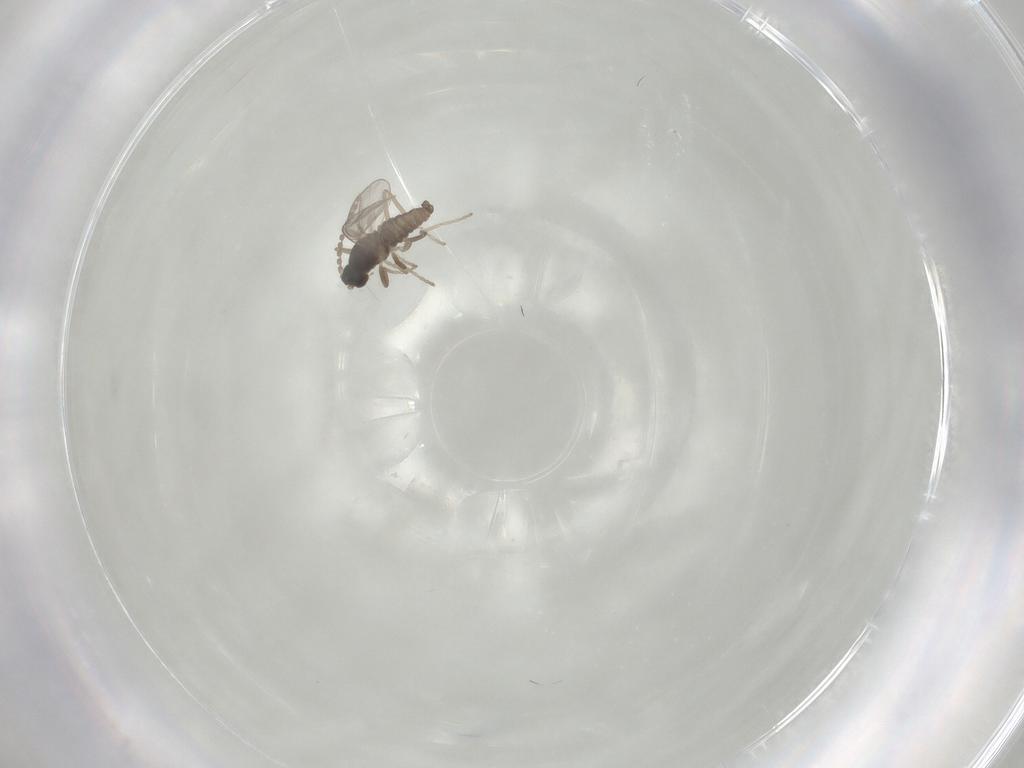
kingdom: Animalia
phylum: Arthropoda
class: Insecta
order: Diptera
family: Cecidomyiidae
